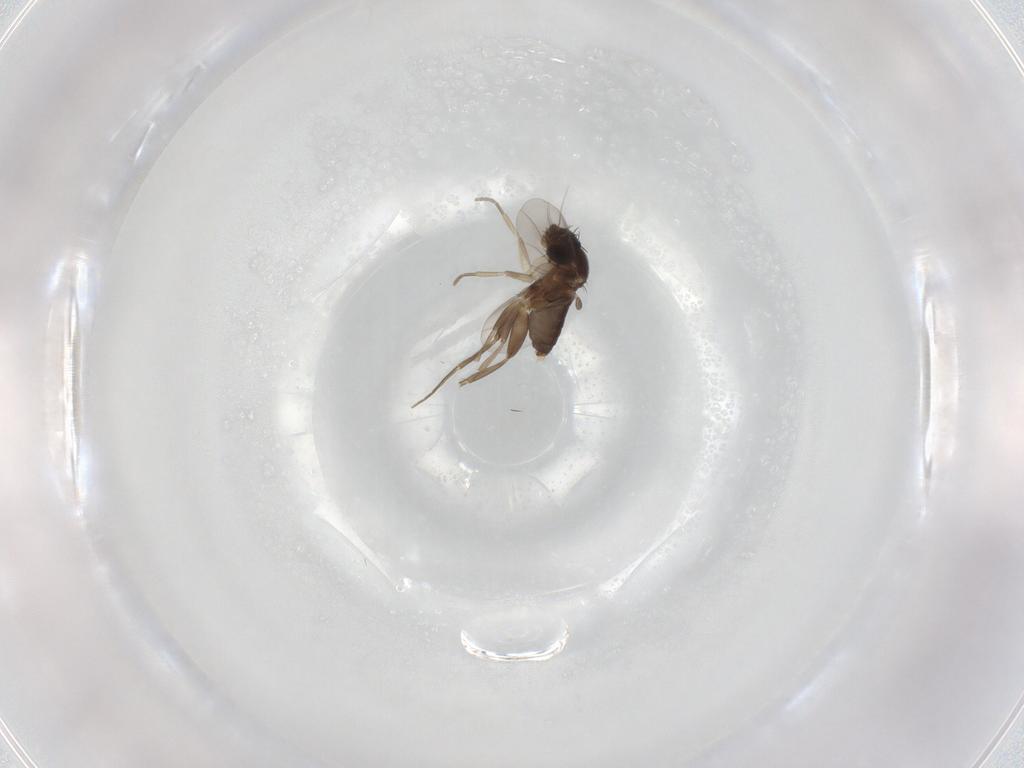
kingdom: Animalia
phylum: Arthropoda
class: Insecta
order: Diptera
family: Phoridae
